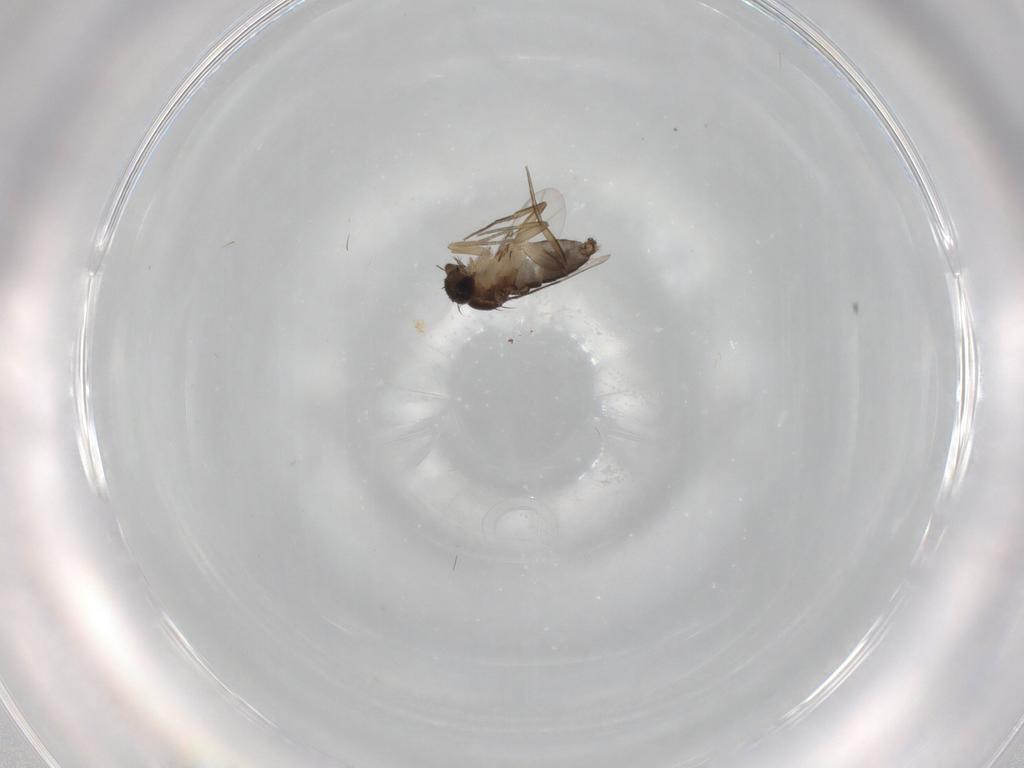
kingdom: Animalia
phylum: Arthropoda
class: Insecta
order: Diptera
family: Phoridae
